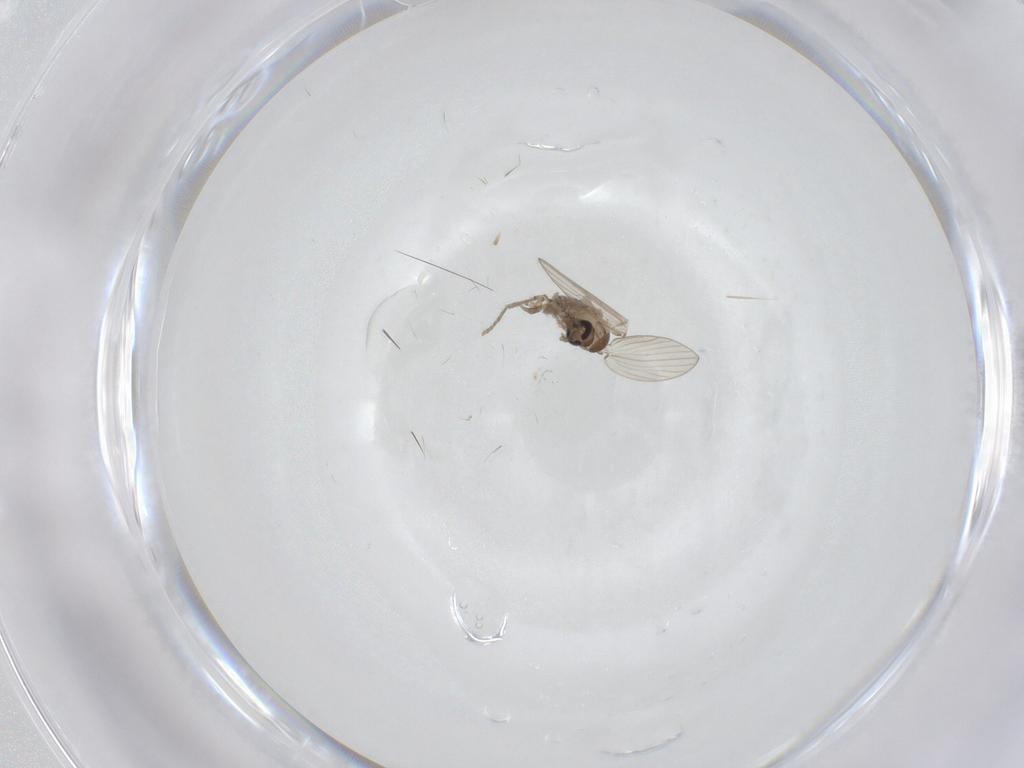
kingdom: Animalia
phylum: Arthropoda
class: Insecta
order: Diptera
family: Psychodidae
